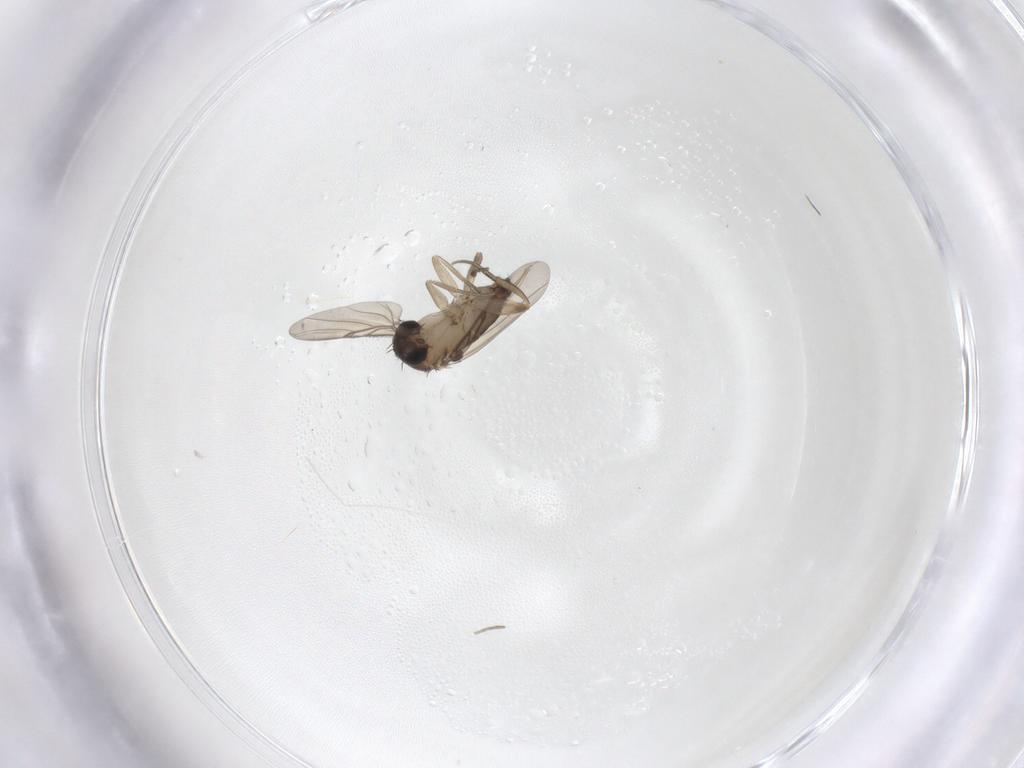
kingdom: Animalia
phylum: Arthropoda
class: Insecta
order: Diptera
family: Phoridae
